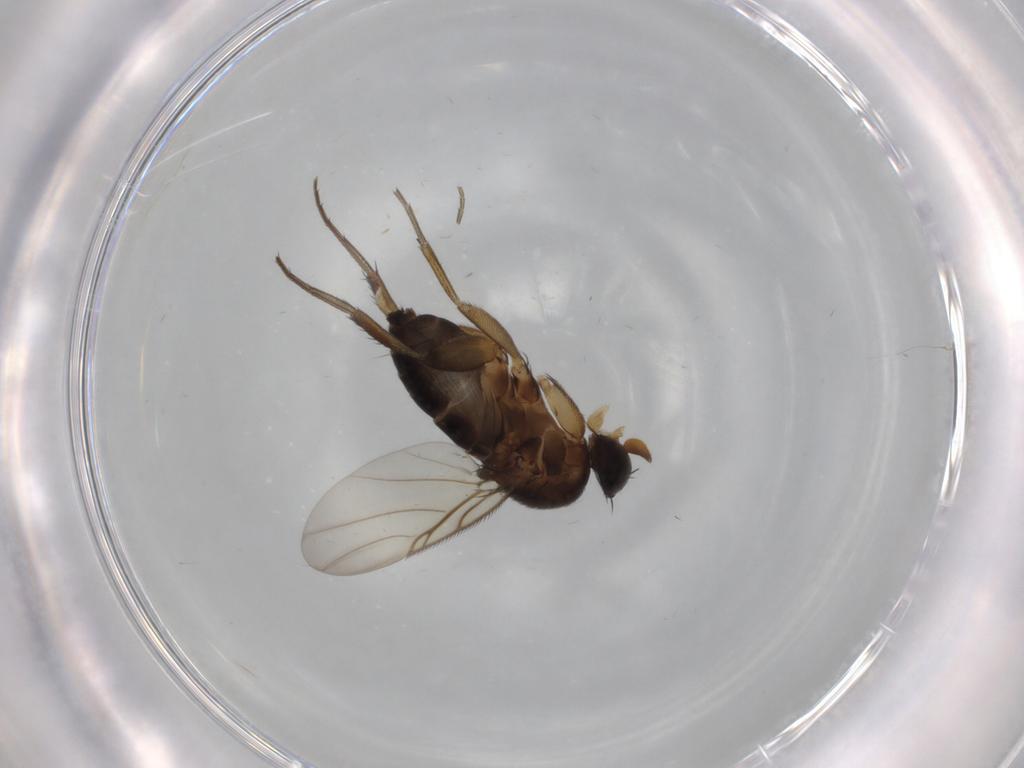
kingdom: Animalia
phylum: Arthropoda
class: Insecta
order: Diptera
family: Phoridae
